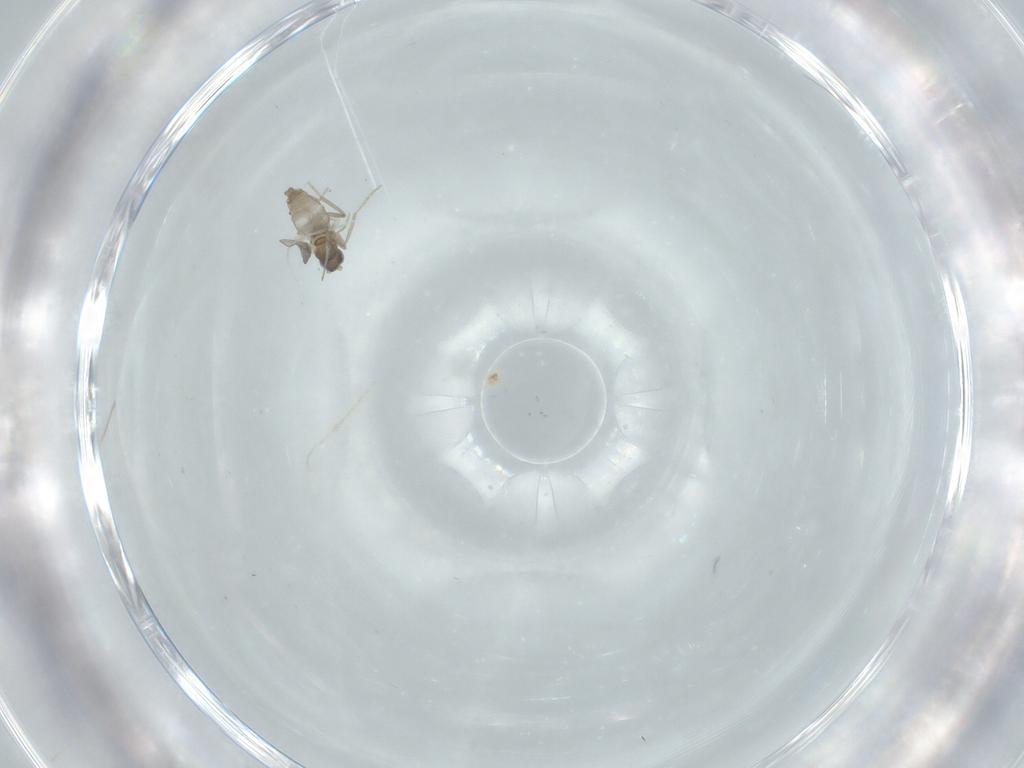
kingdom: Animalia
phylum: Arthropoda
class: Insecta
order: Diptera
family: Cecidomyiidae
